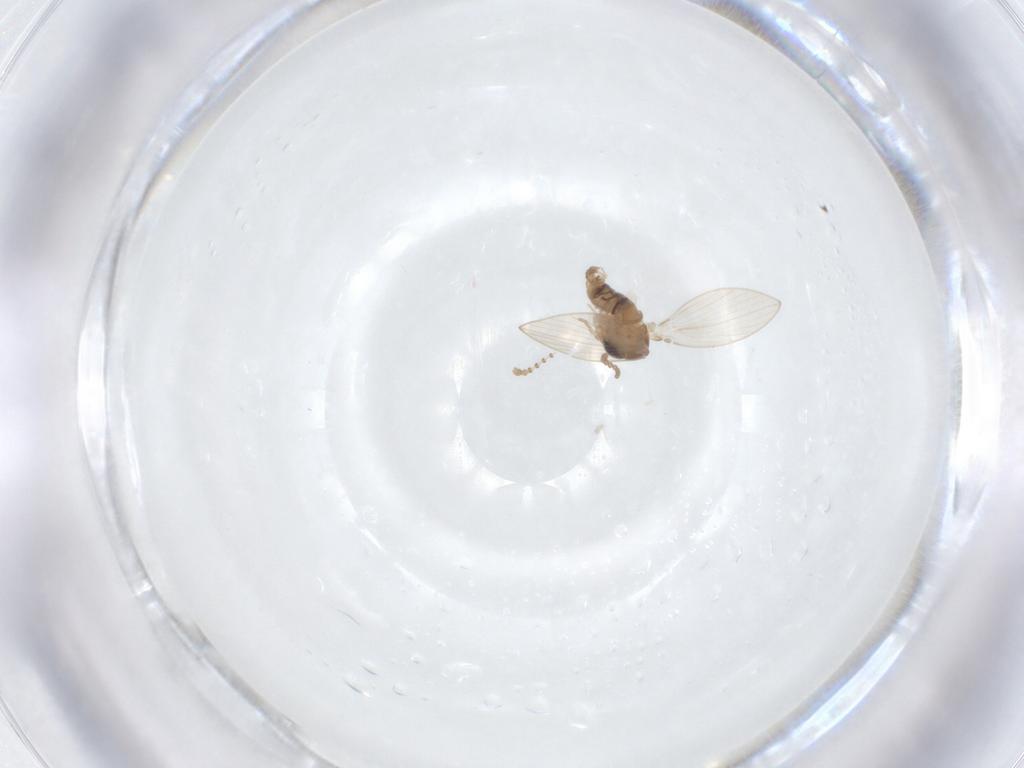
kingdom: Animalia
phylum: Arthropoda
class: Insecta
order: Diptera
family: Psychodidae
